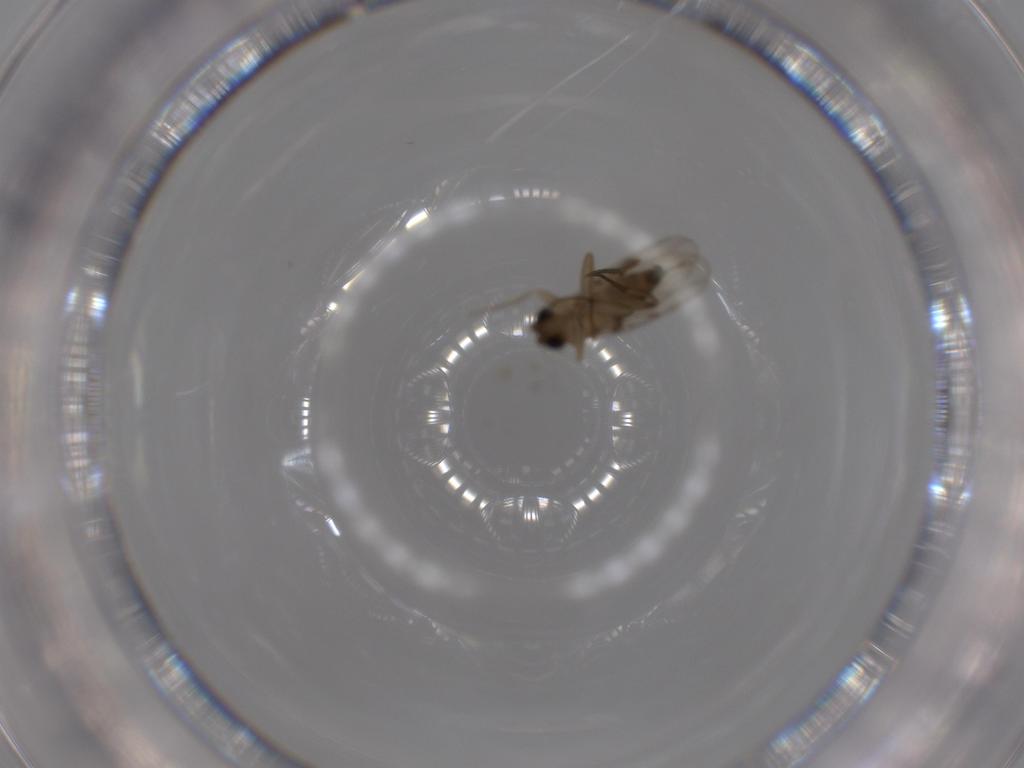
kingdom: Animalia
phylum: Arthropoda
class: Insecta
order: Diptera
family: Phoridae
